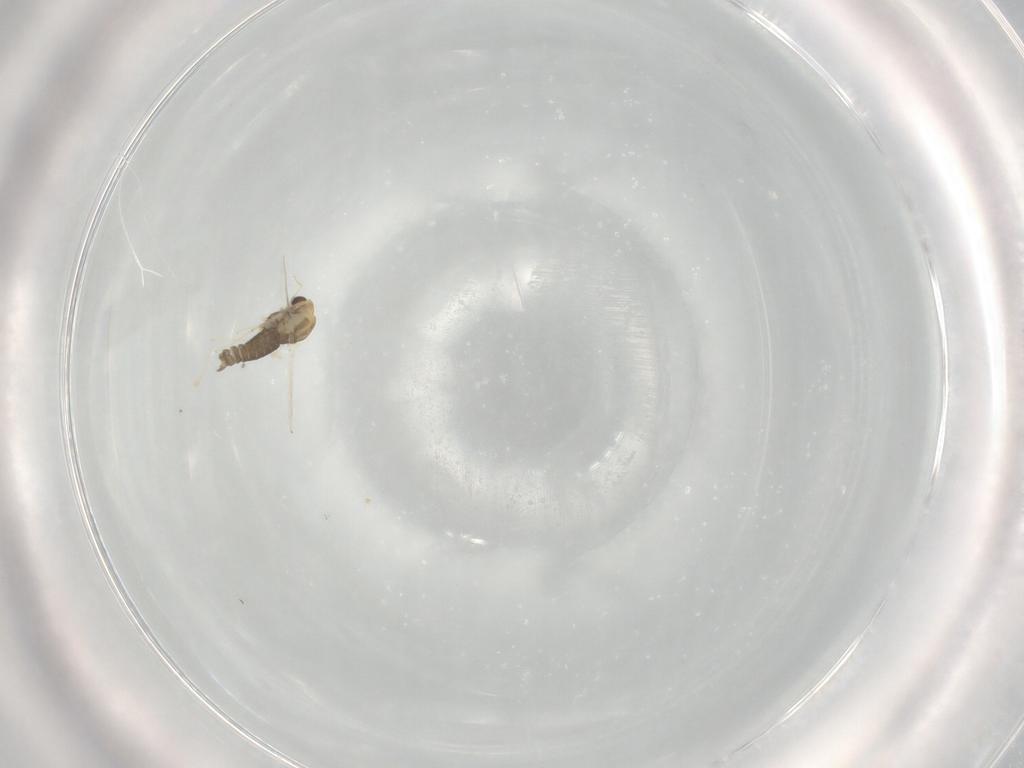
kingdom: Animalia
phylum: Arthropoda
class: Insecta
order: Diptera
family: Chironomidae
